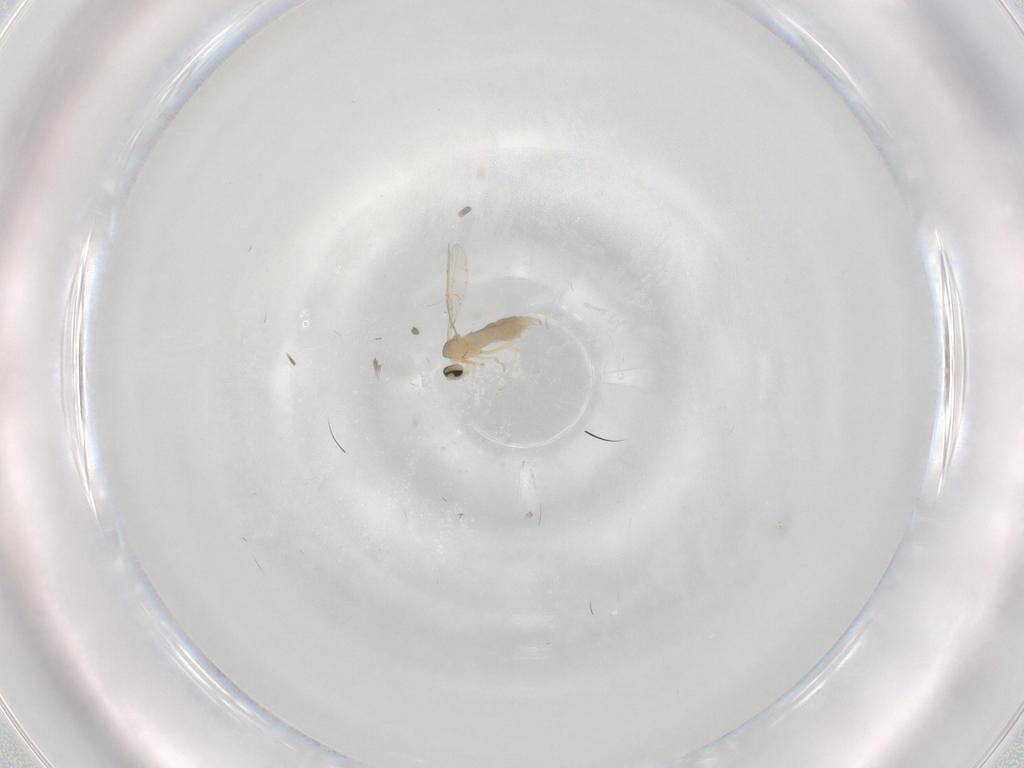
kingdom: Animalia
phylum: Arthropoda
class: Insecta
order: Diptera
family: Cecidomyiidae
